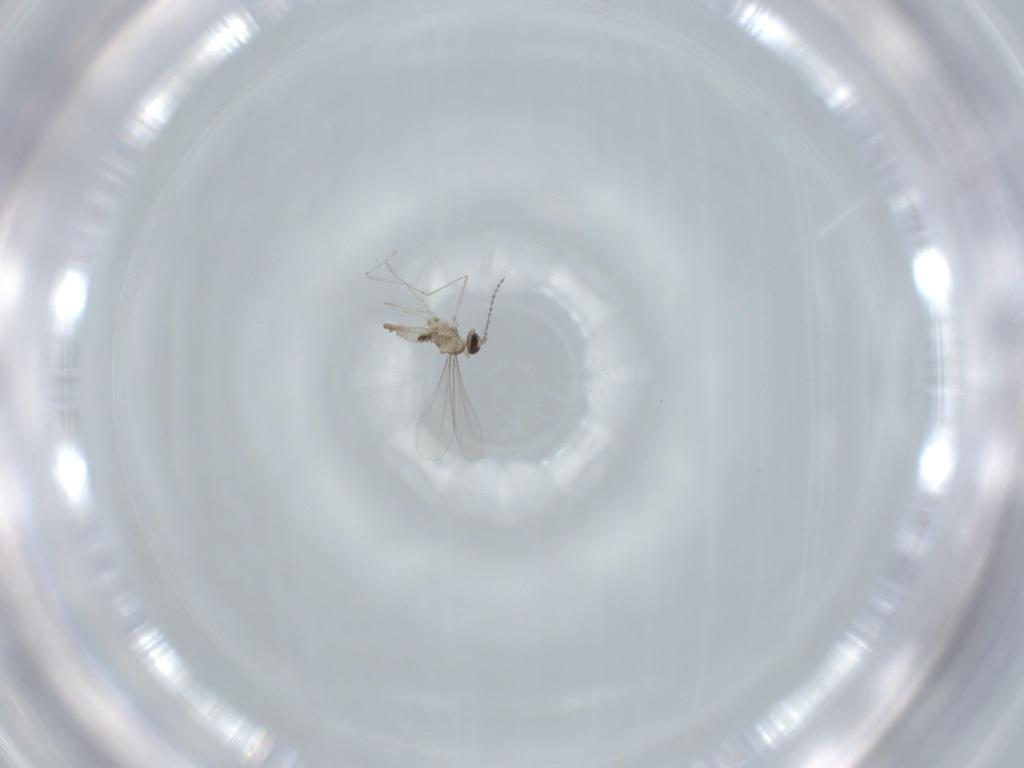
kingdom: Animalia
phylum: Arthropoda
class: Insecta
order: Diptera
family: Cecidomyiidae
